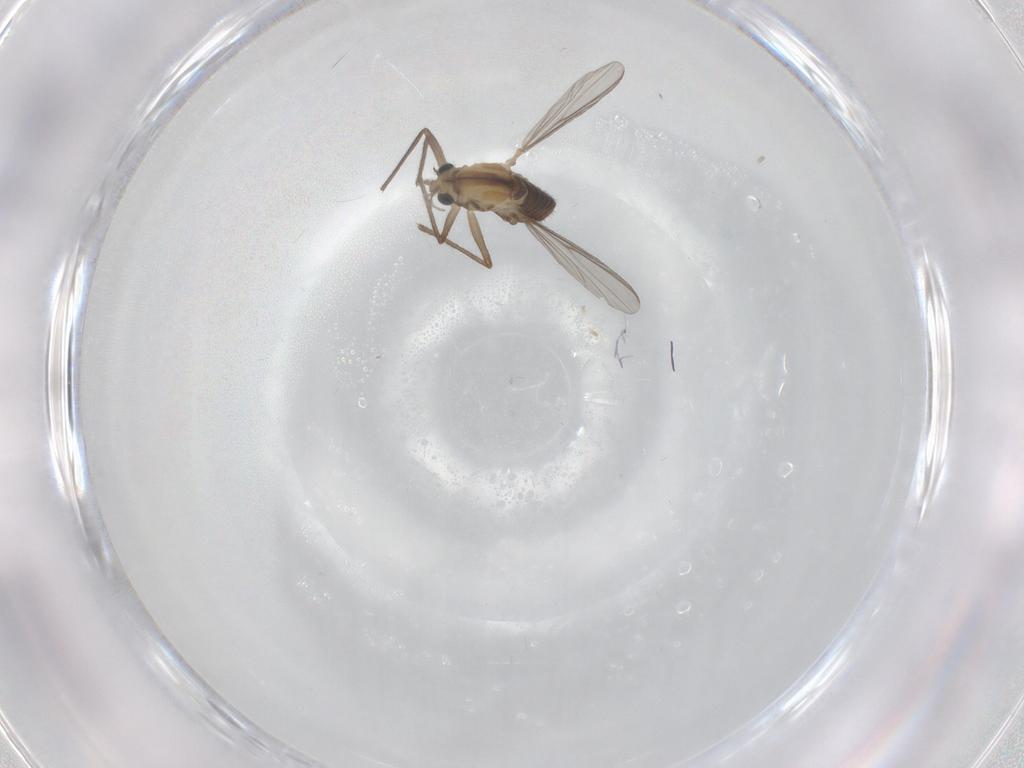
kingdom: Animalia
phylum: Arthropoda
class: Insecta
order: Diptera
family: Chironomidae
